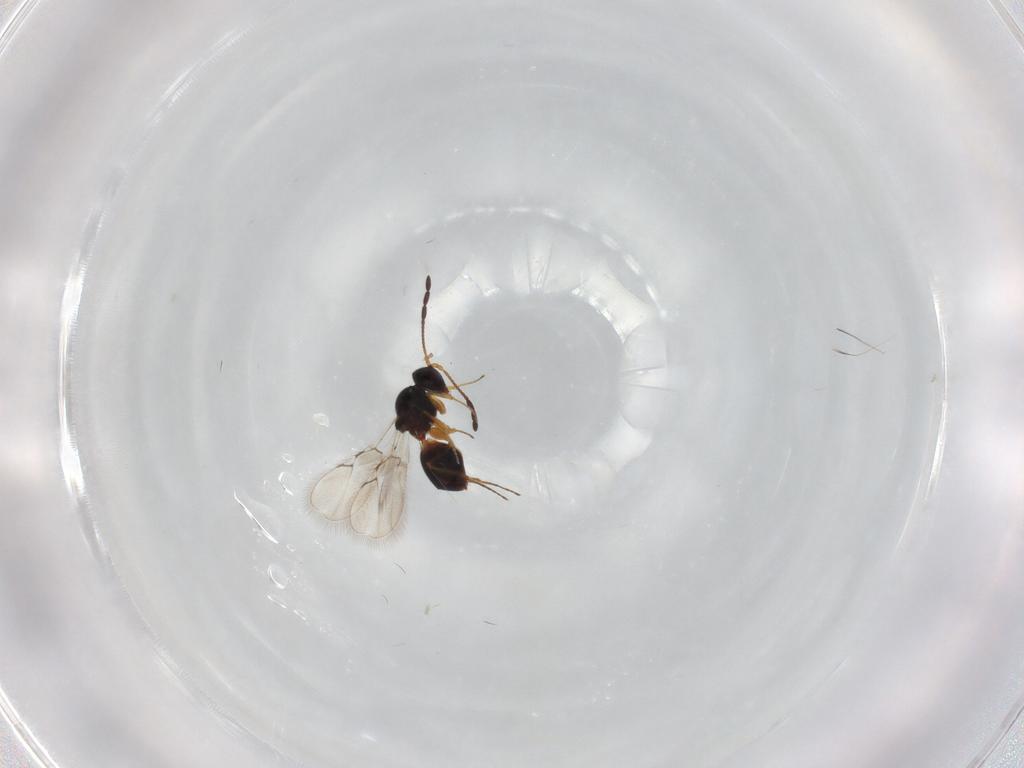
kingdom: Animalia
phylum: Arthropoda
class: Insecta
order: Hymenoptera
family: Figitidae
